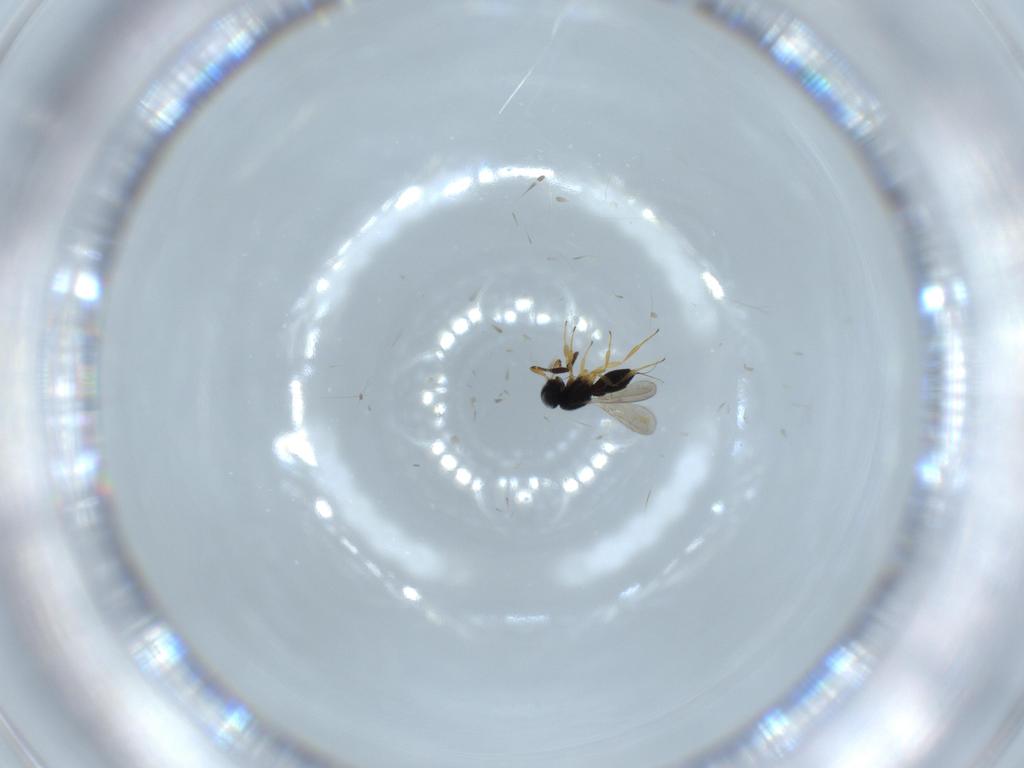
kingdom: Animalia
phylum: Arthropoda
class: Insecta
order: Hymenoptera
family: Scelionidae
